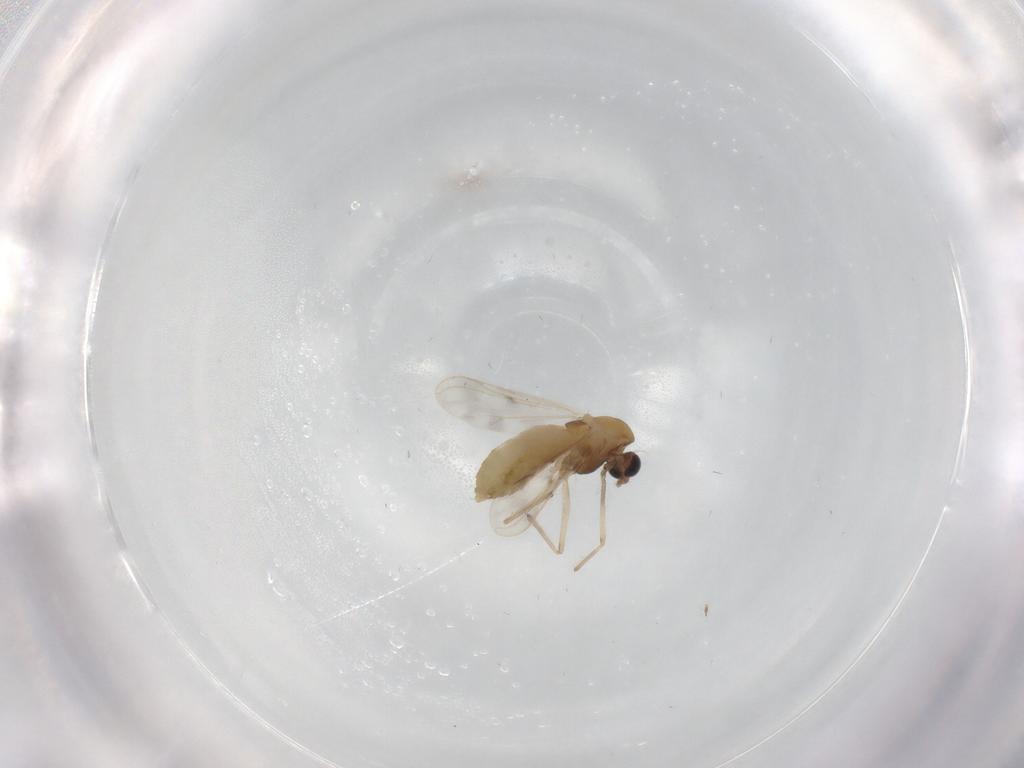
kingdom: Animalia
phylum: Arthropoda
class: Insecta
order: Diptera
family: Chironomidae
